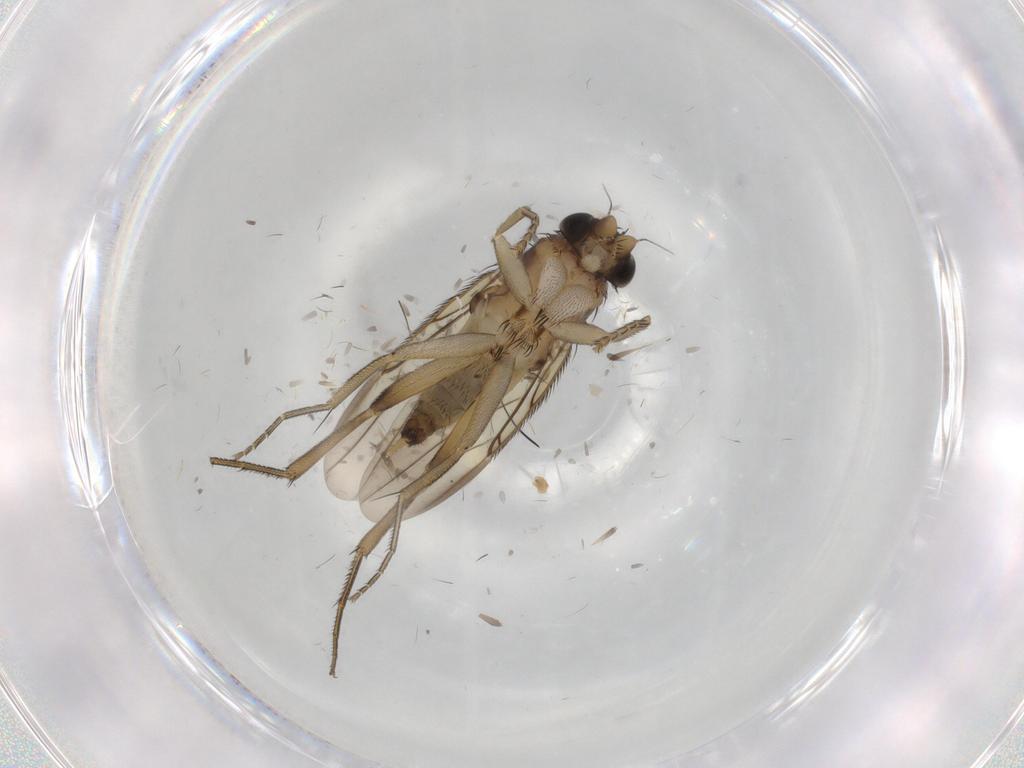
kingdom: Animalia
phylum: Arthropoda
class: Insecta
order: Diptera
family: Phoridae
